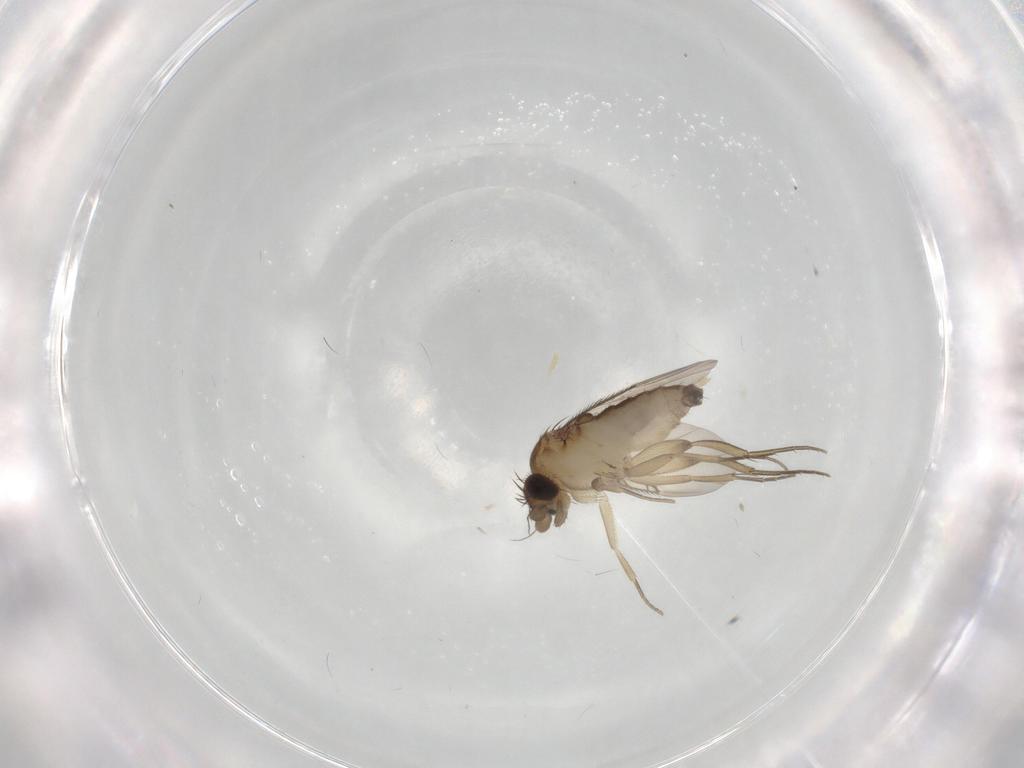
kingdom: Animalia
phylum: Arthropoda
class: Insecta
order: Diptera
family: Phoridae
